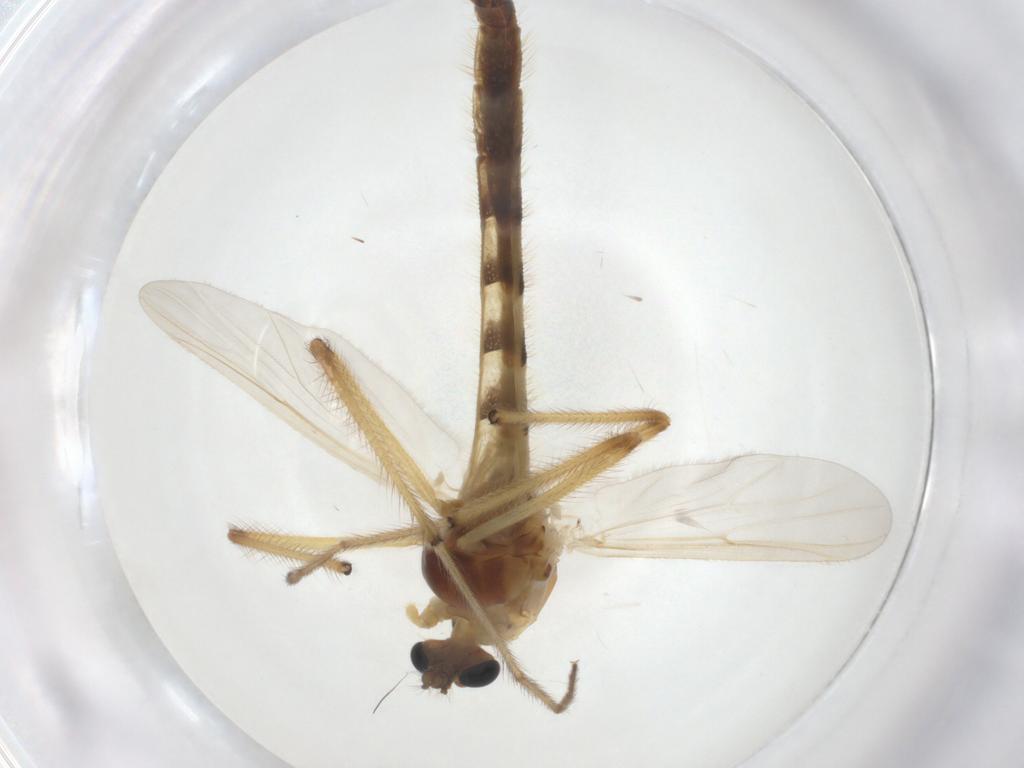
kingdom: Animalia
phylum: Arthropoda
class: Insecta
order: Diptera
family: Chironomidae
